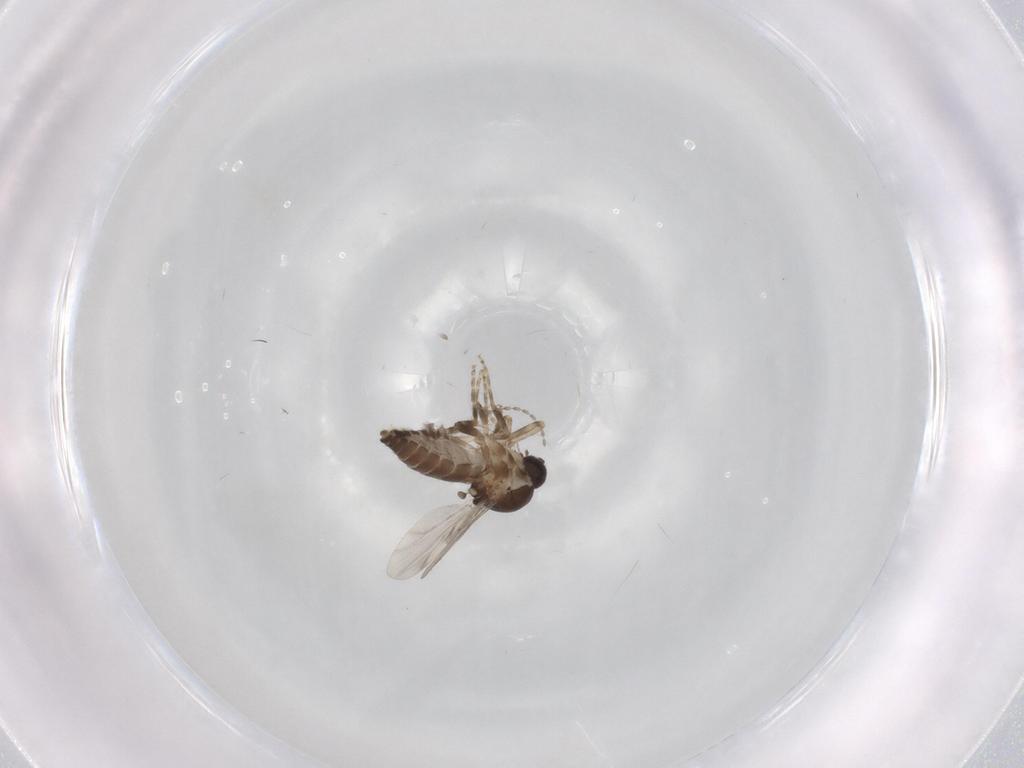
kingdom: Animalia
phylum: Arthropoda
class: Insecta
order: Diptera
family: Ceratopogonidae
